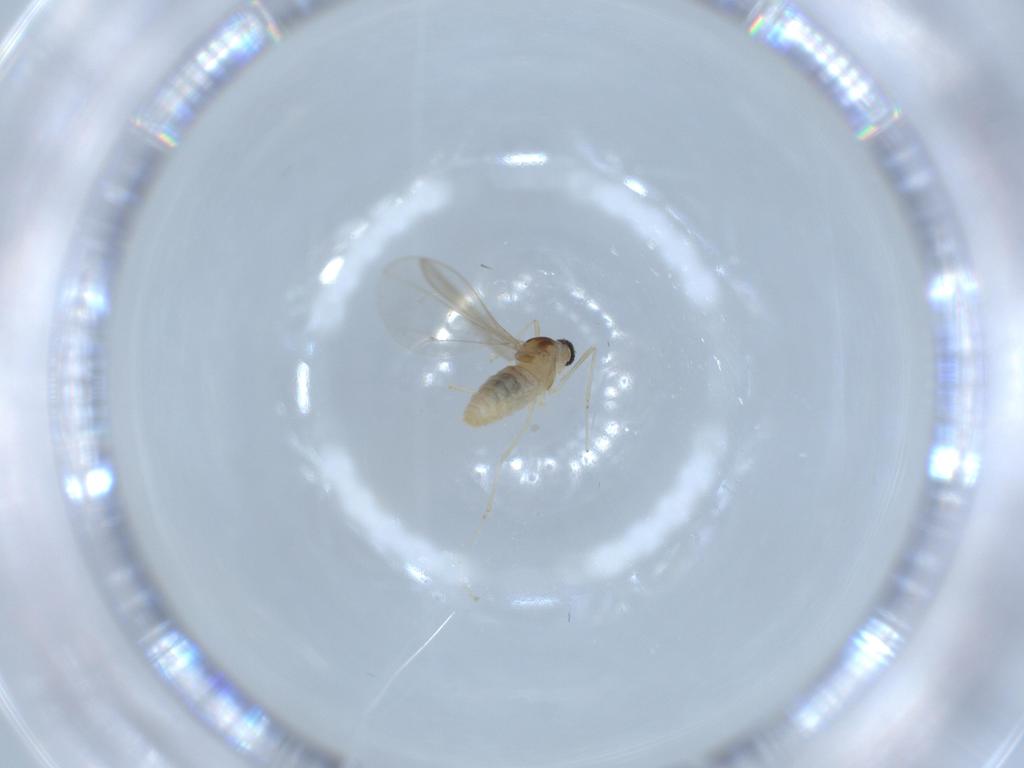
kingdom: Animalia
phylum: Arthropoda
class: Insecta
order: Diptera
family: Cecidomyiidae
